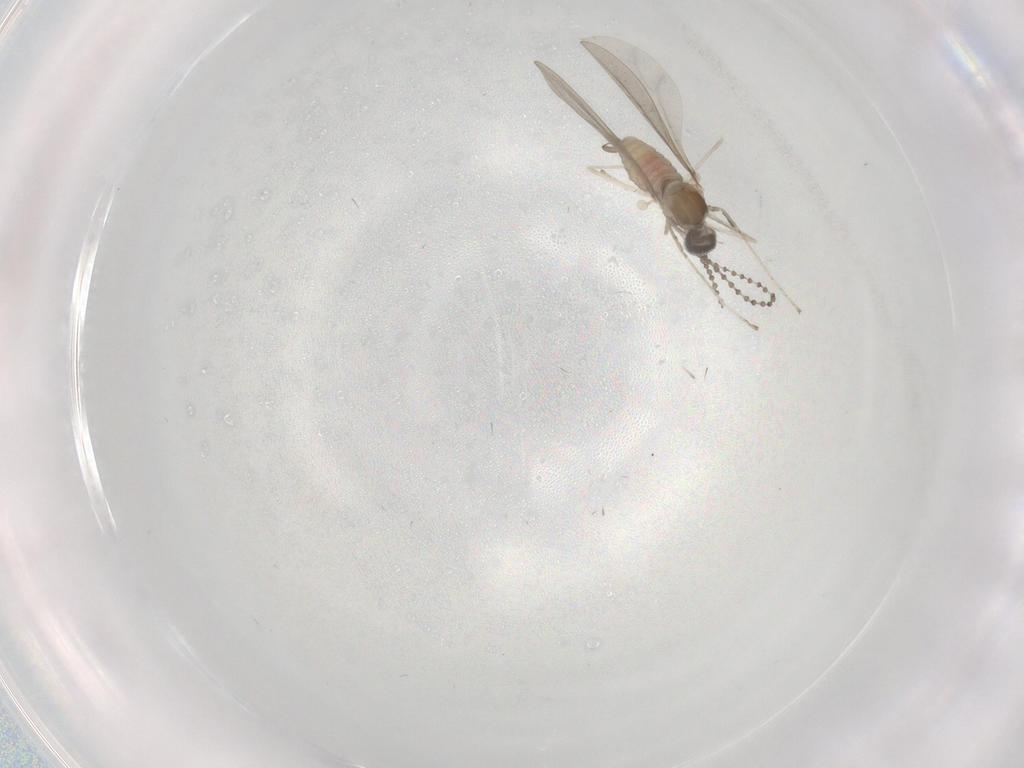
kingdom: Animalia
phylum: Arthropoda
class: Insecta
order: Diptera
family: Cecidomyiidae
